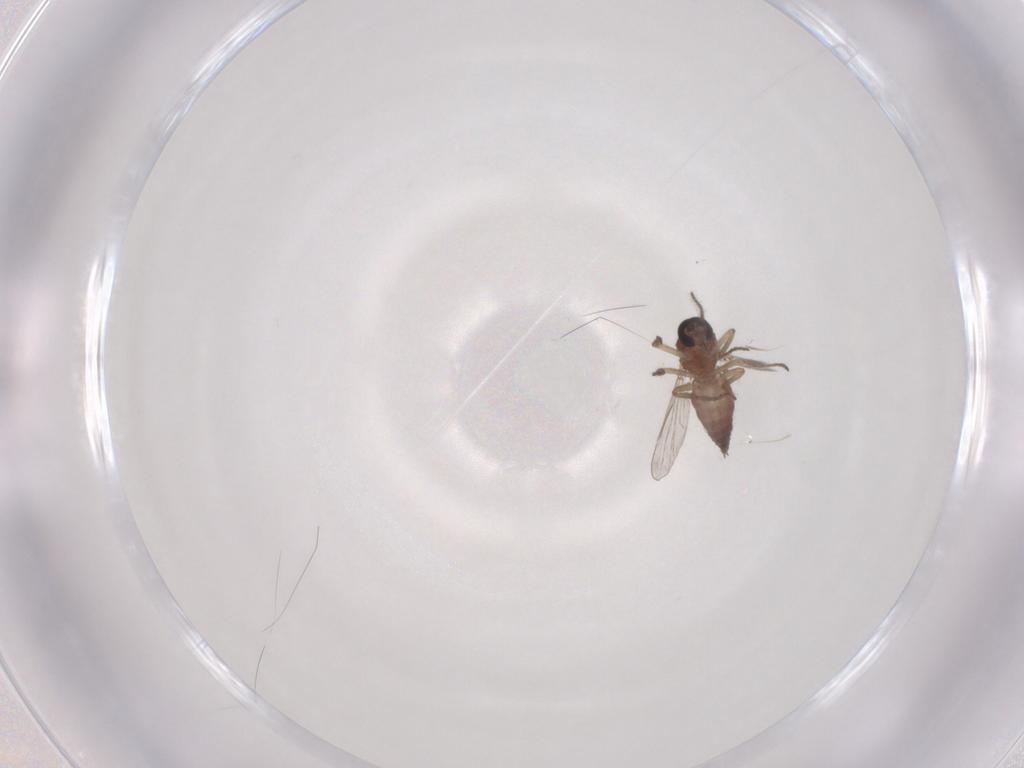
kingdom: Animalia
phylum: Arthropoda
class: Insecta
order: Diptera
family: Ceratopogonidae
